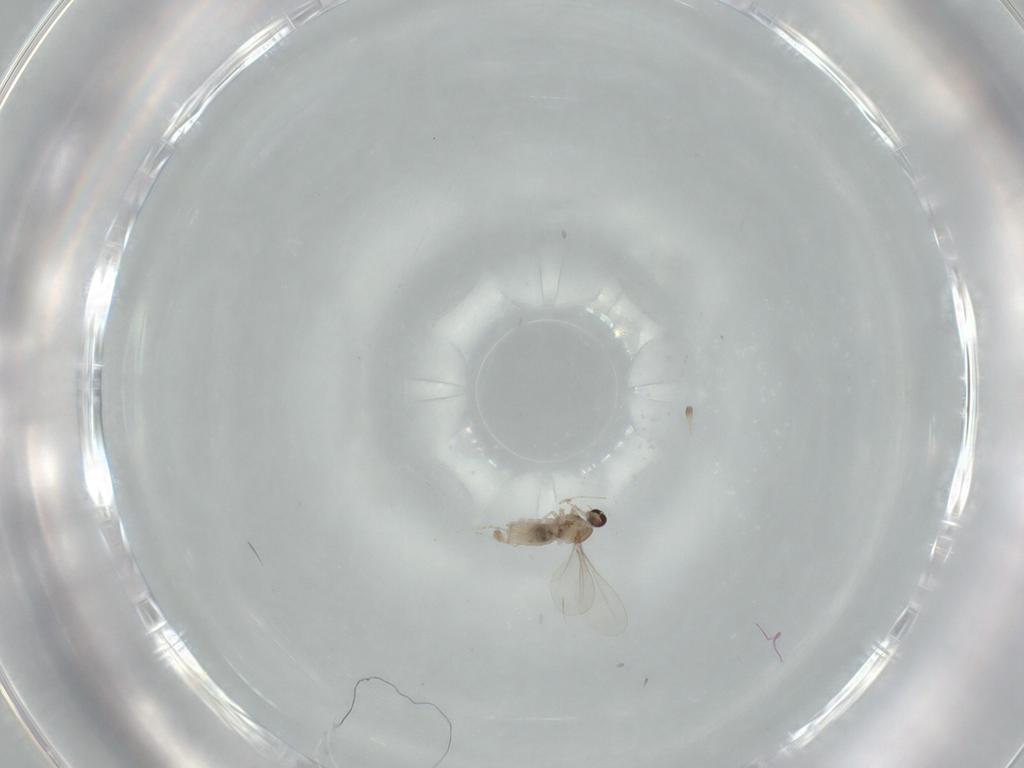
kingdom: Animalia
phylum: Arthropoda
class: Insecta
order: Diptera
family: Cecidomyiidae
